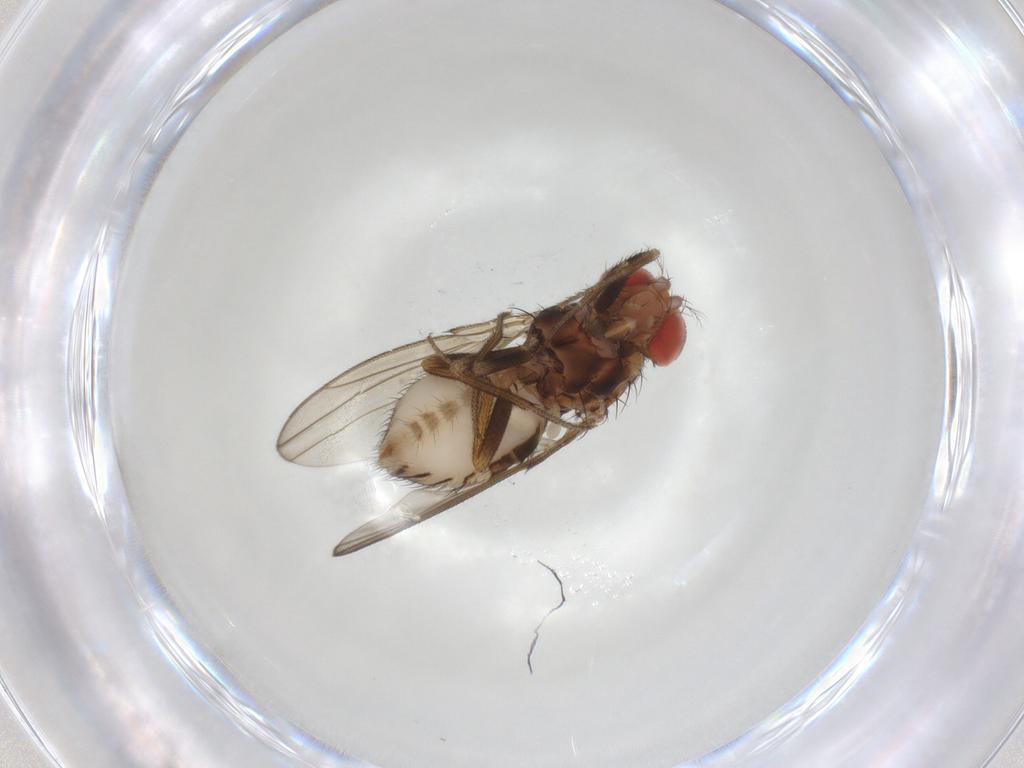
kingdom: Animalia
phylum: Arthropoda
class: Insecta
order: Diptera
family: Drosophilidae
